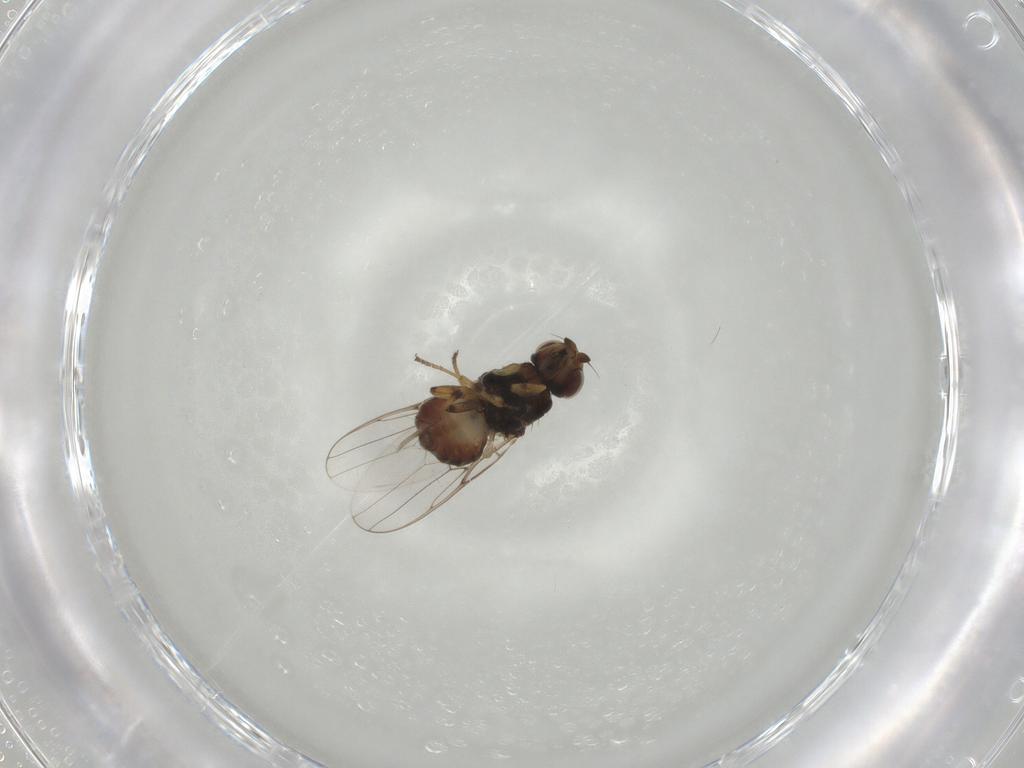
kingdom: Animalia
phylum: Arthropoda
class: Insecta
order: Diptera
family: Chloropidae
